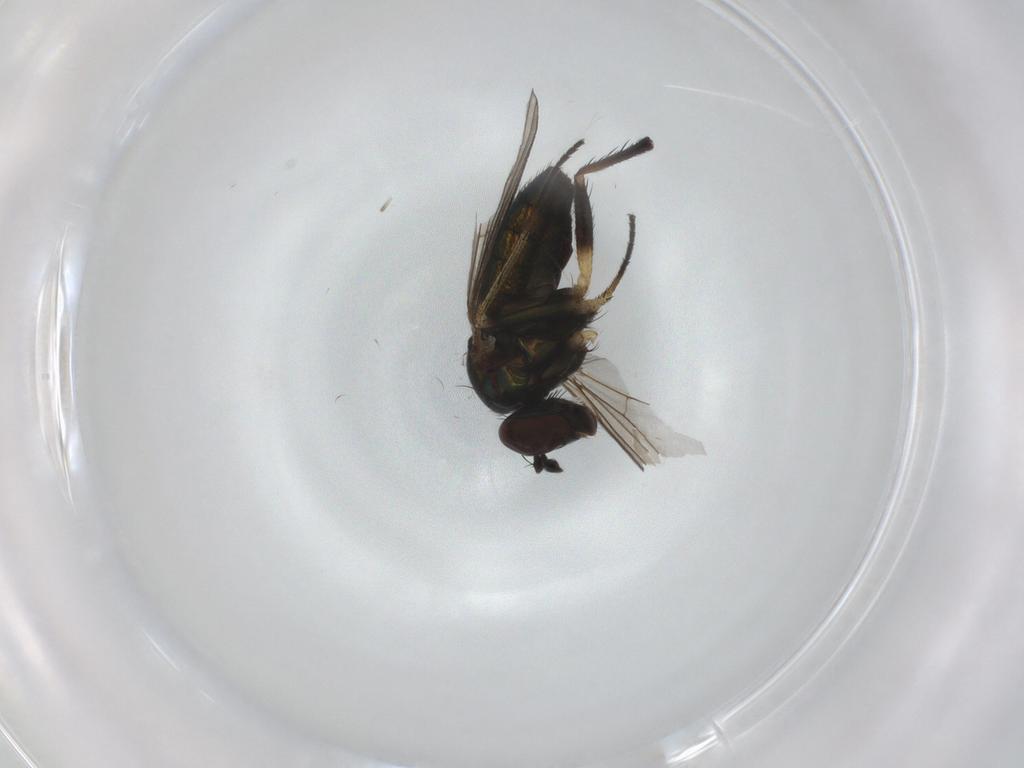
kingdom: Animalia
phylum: Arthropoda
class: Insecta
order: Diptera
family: Dolichopodidae
